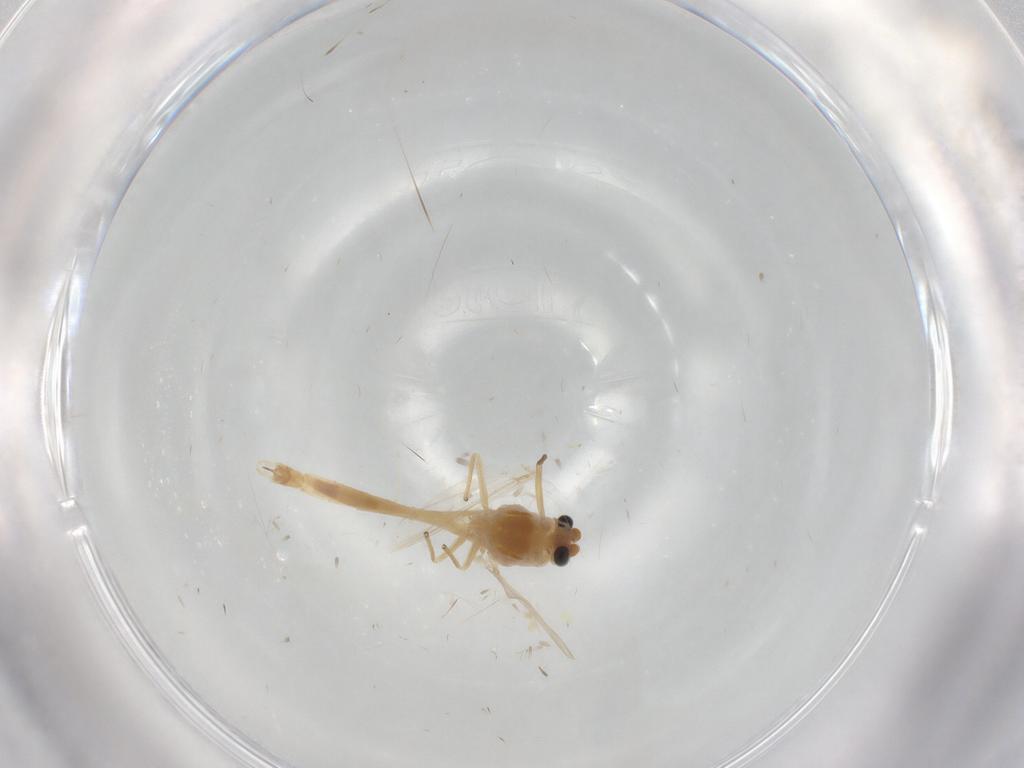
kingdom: Animalia
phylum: Arthropoda
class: Insecta
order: Diptera
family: Chironomidae
